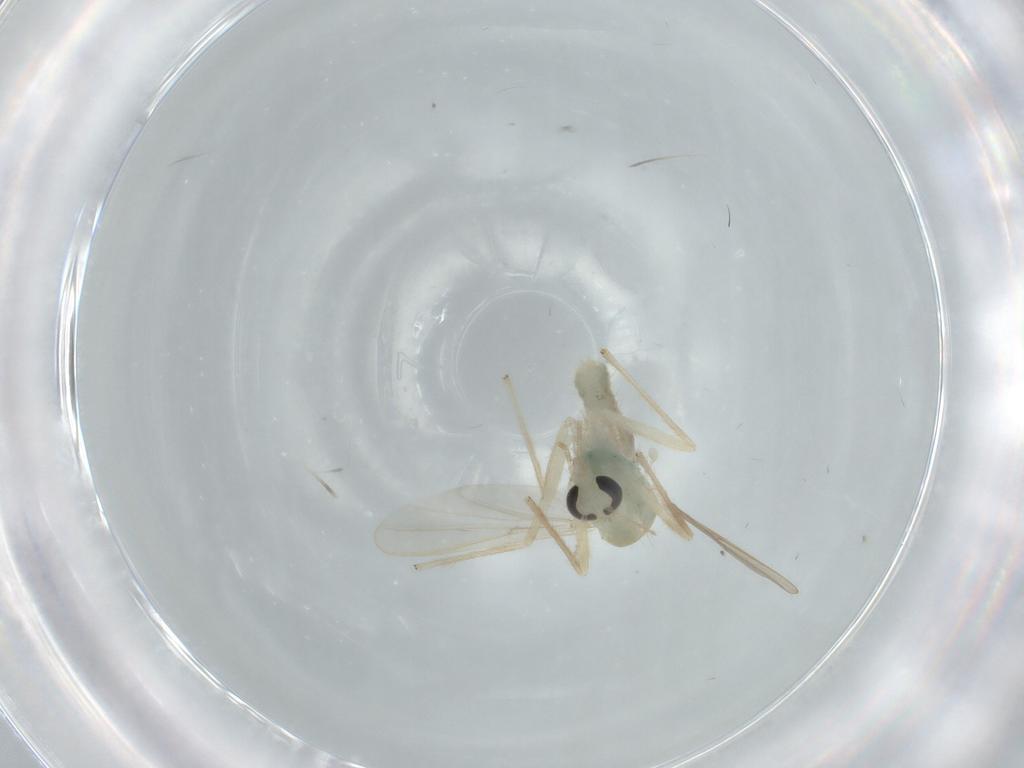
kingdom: Animalia
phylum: Arthropoda
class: Insecta
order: Diptera
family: Chironomidae
